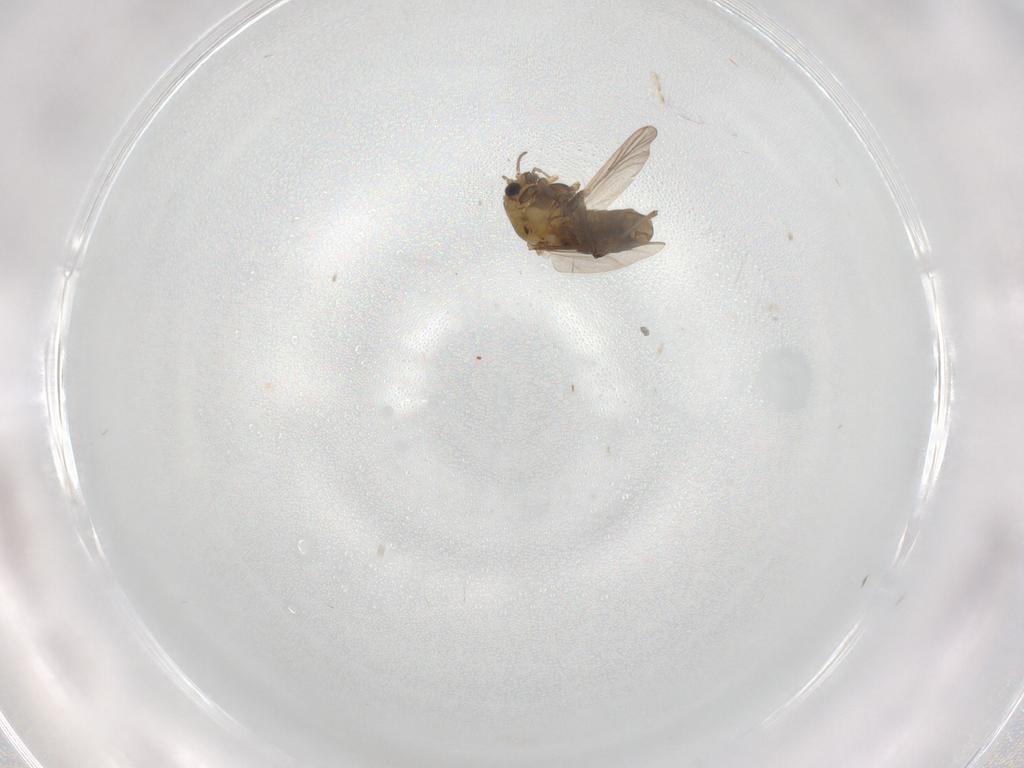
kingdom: Animalia
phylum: Arthropoda
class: Insecta
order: Diptera
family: Chironomidae
